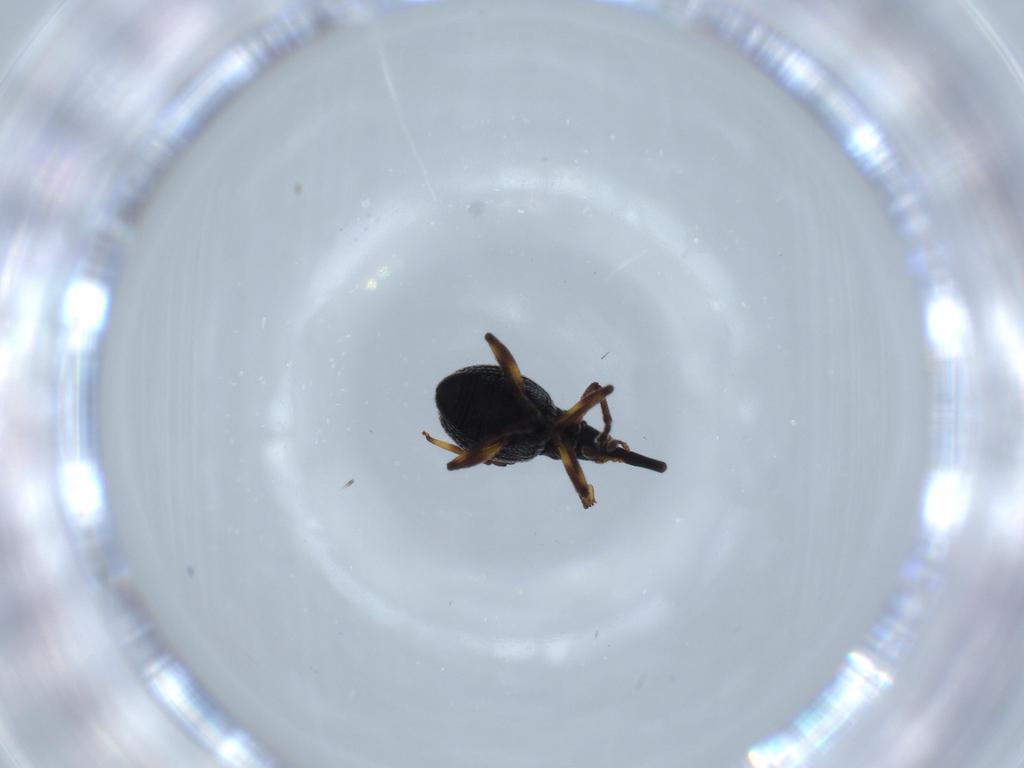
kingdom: Animalia
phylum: Arthropoda
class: Insecta
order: Coleoptera
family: Brentidae
